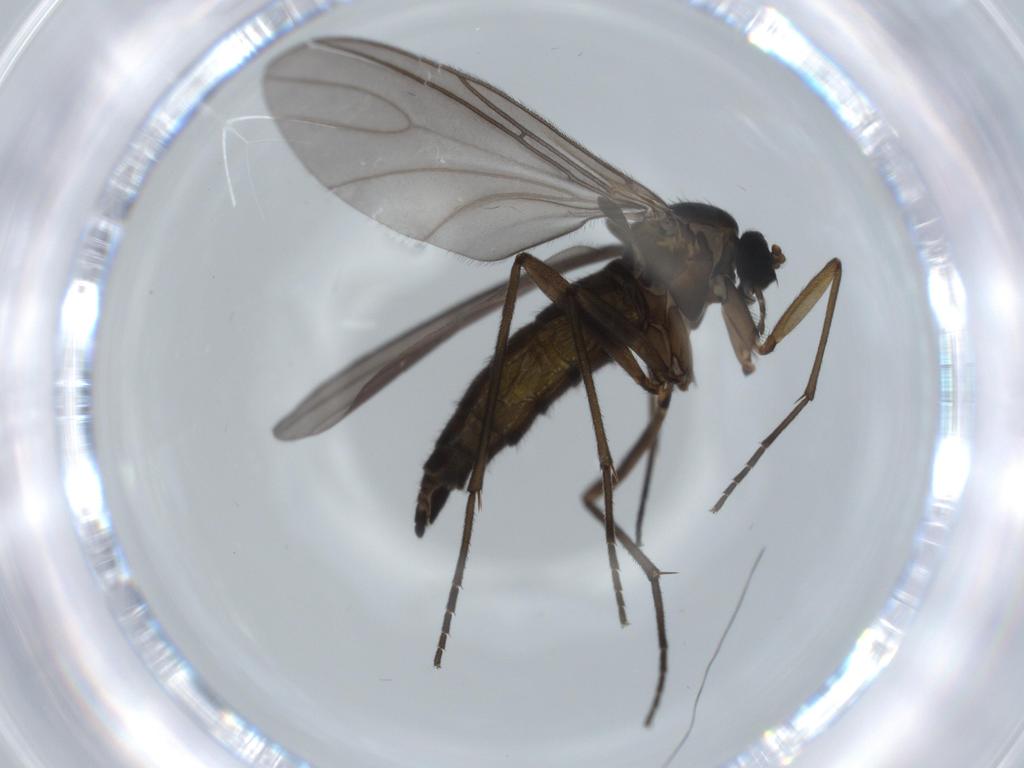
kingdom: Animalia
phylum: Arthropoda
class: Insecta
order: Diptera
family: Sciaridae
